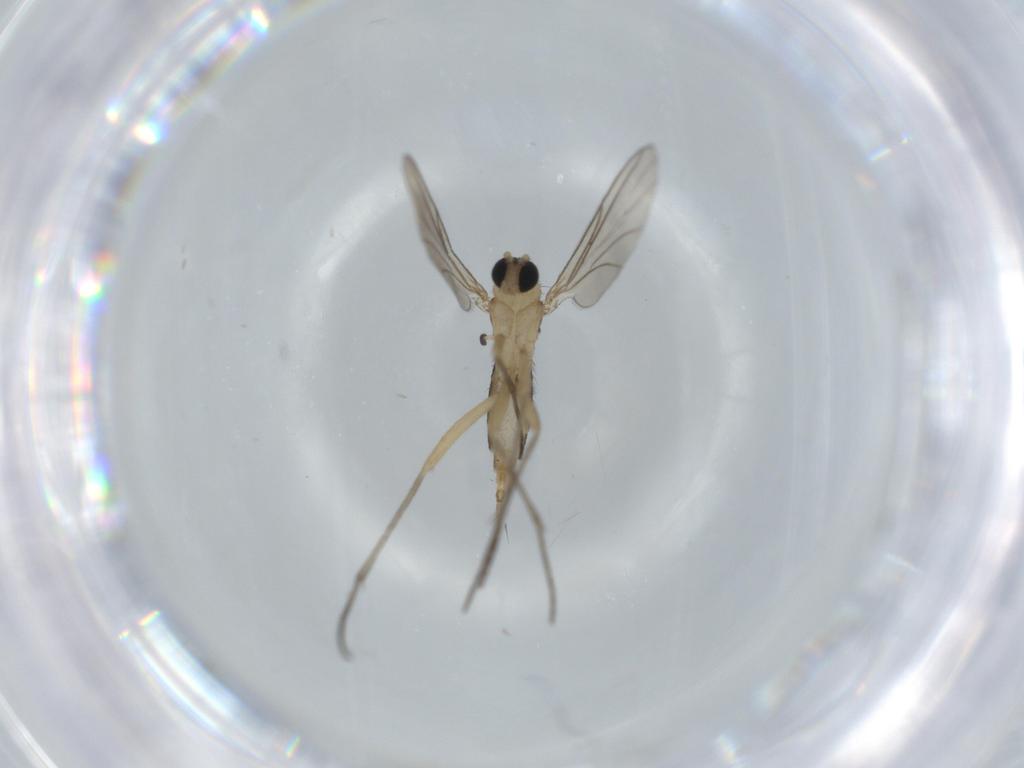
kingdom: Animalia
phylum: Arthropoda
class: Insecta
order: Diptera
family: Sciaridae
